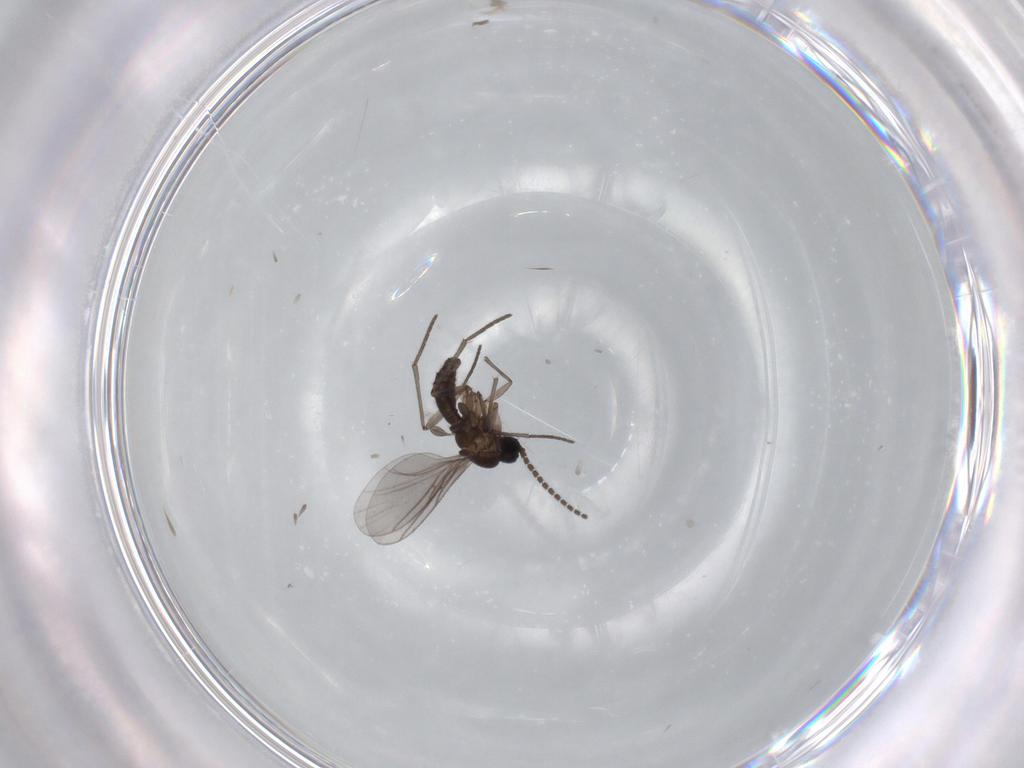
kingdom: Animalia
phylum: Arthropoda
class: Insecta
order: Diptera
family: Sciaridae
